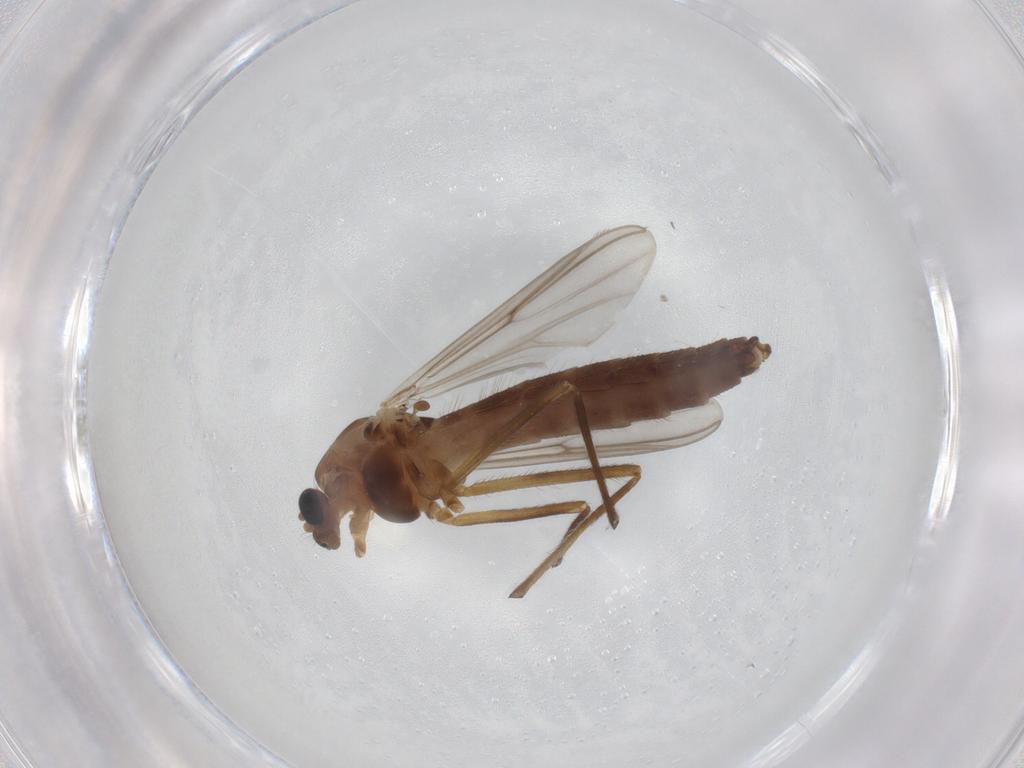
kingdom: Animalia
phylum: Arthropoda
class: Insecta
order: Diptera
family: Chironomidae
